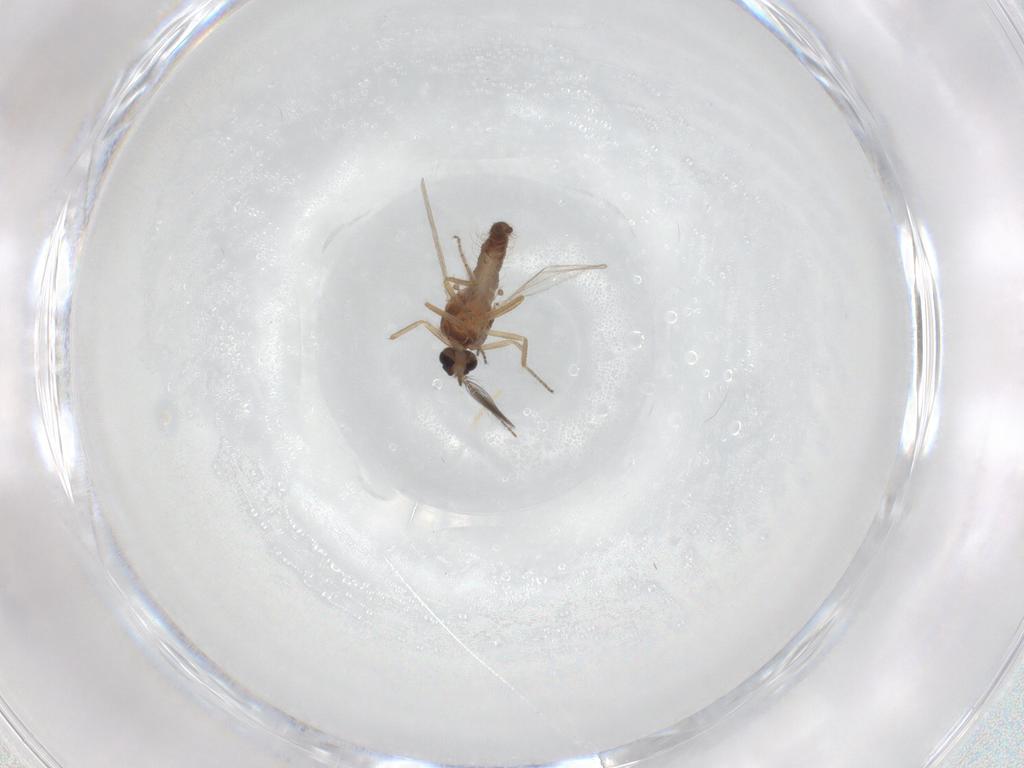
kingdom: Animalia
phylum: Arthropoda
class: Insecta
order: Diptera
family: Ceratopogonidae
